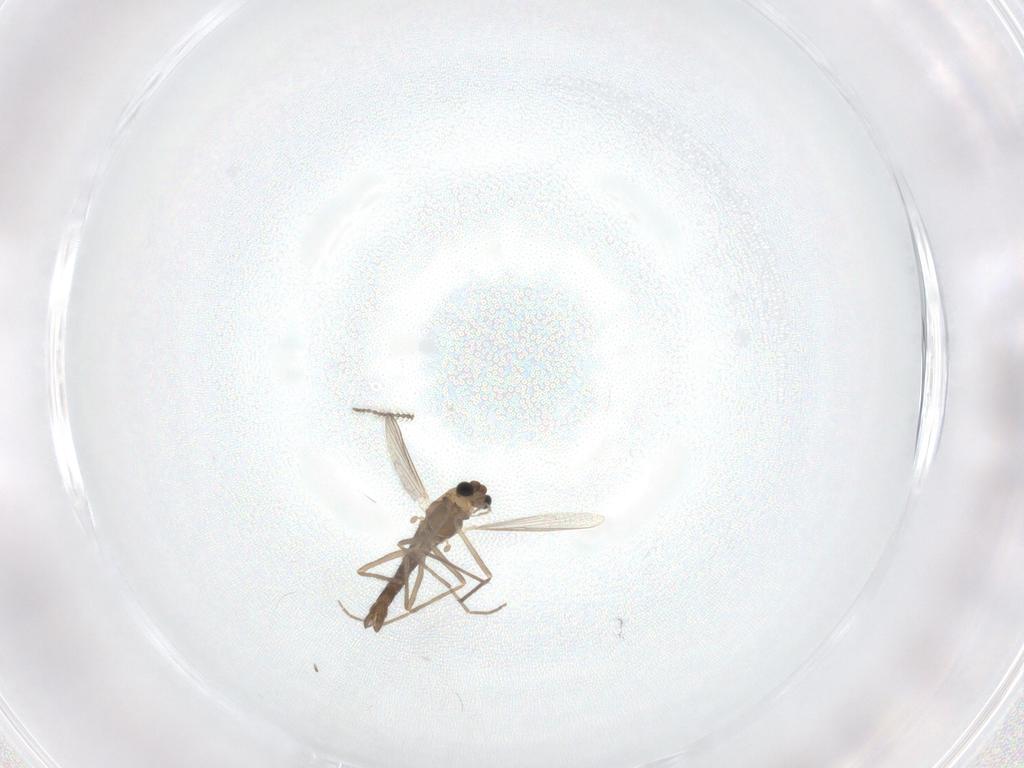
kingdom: Animalia
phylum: Arthropoda
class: Insecta
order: Diptera
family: Chironomidae
